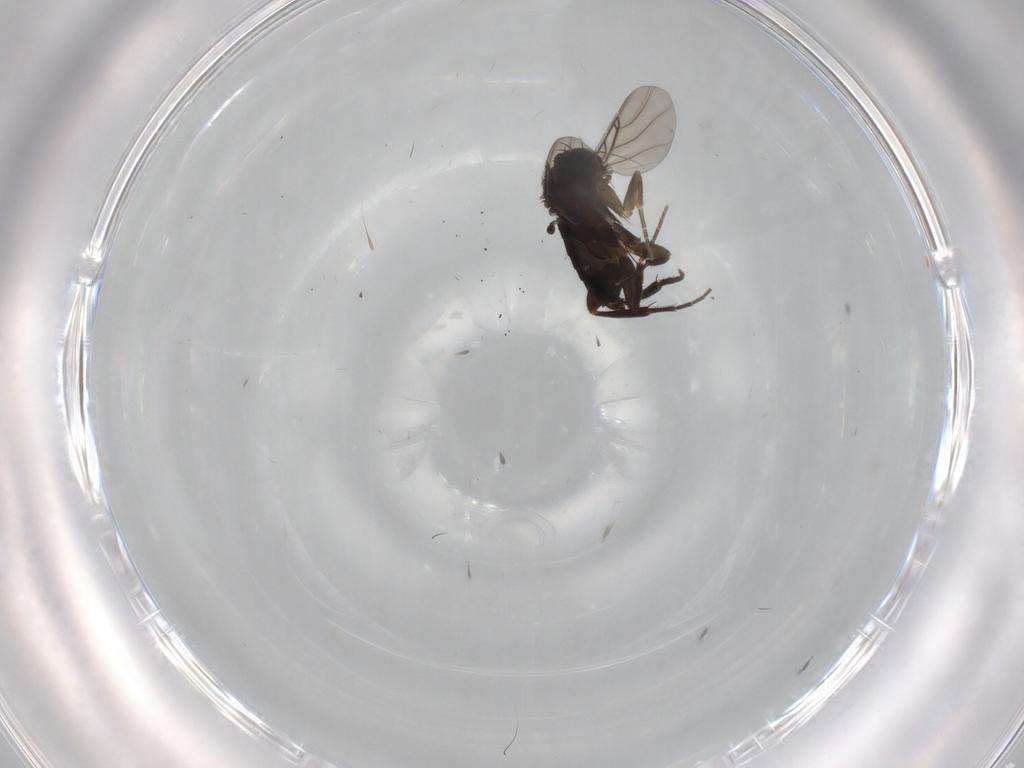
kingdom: Animalia
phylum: Arthropoda
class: Insecta
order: Diptera
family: Phoridae
